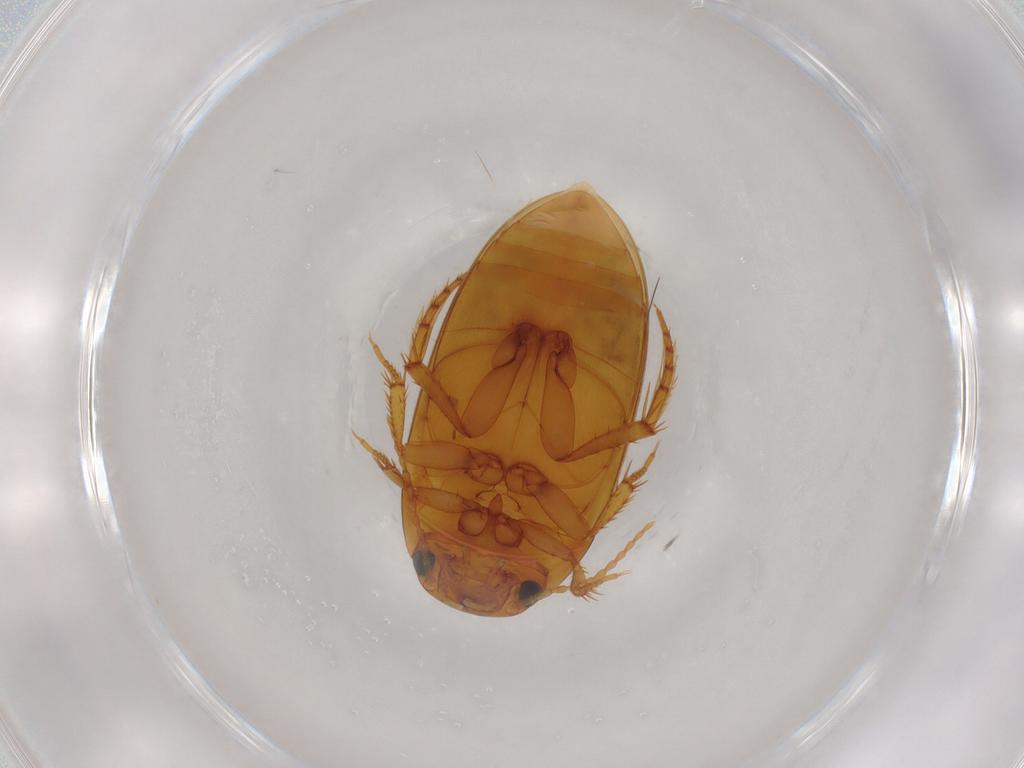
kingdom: Animalia
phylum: Arthropoda
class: Insecta
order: Coleoptera
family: Dytiscidae
